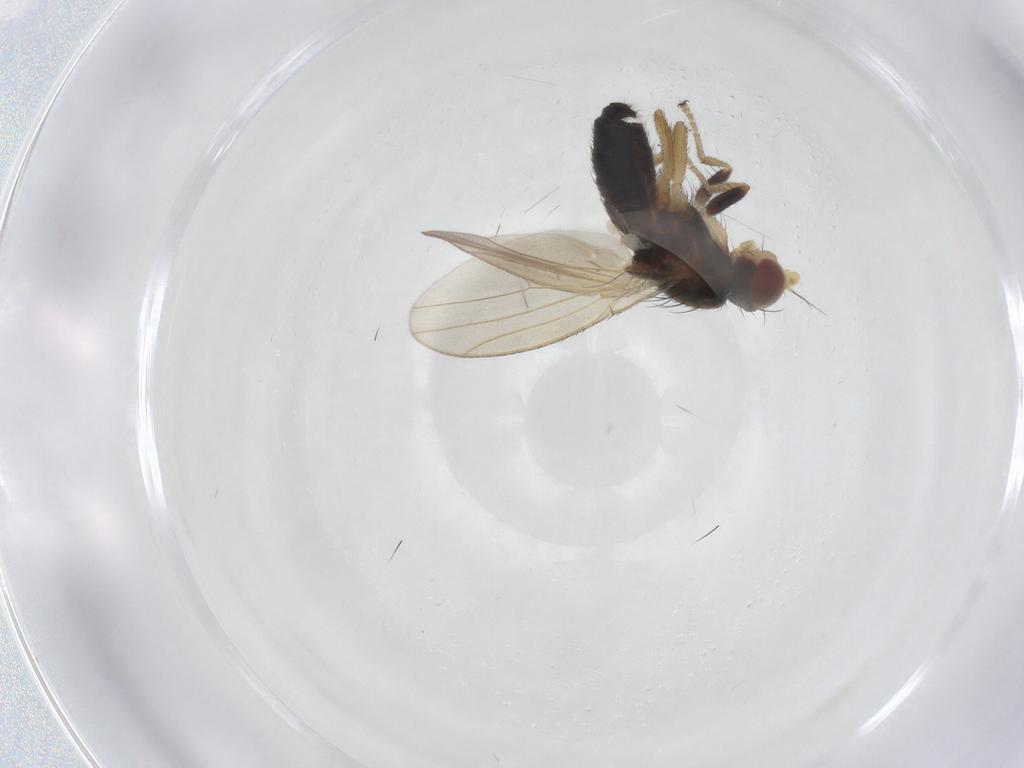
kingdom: Animalia
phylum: Arthropoda
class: Insecta
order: Diptera
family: Heleomyzidae
